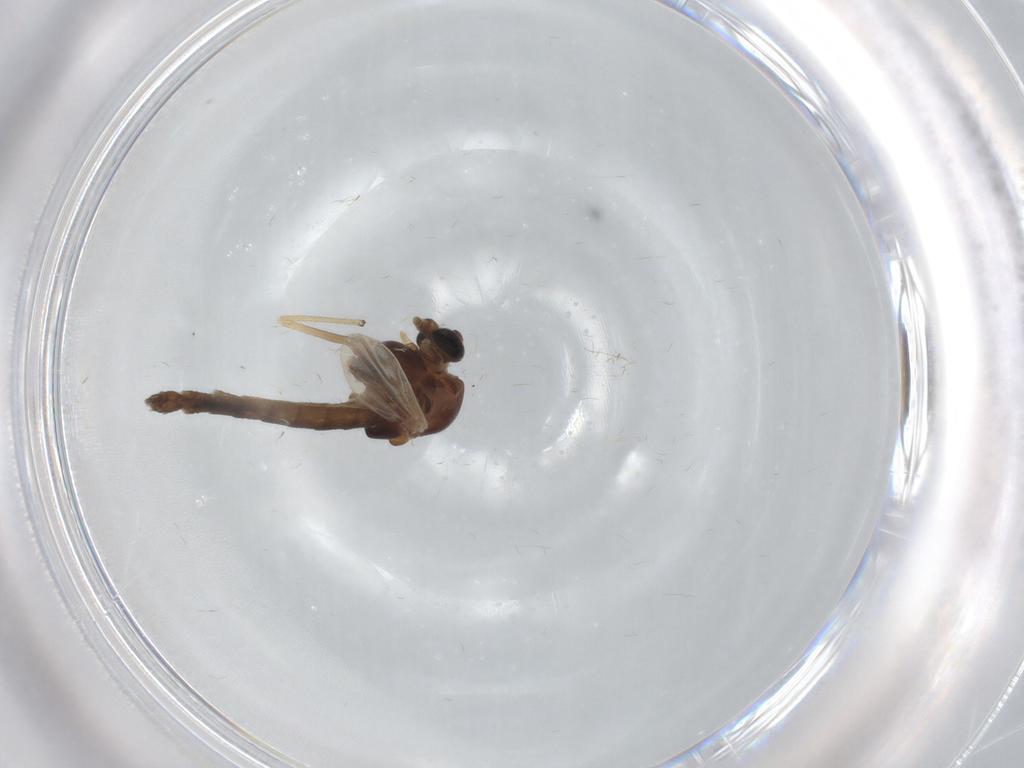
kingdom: Animalia
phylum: Arthropoda
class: Insecta
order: Diptera
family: Chironomidae
